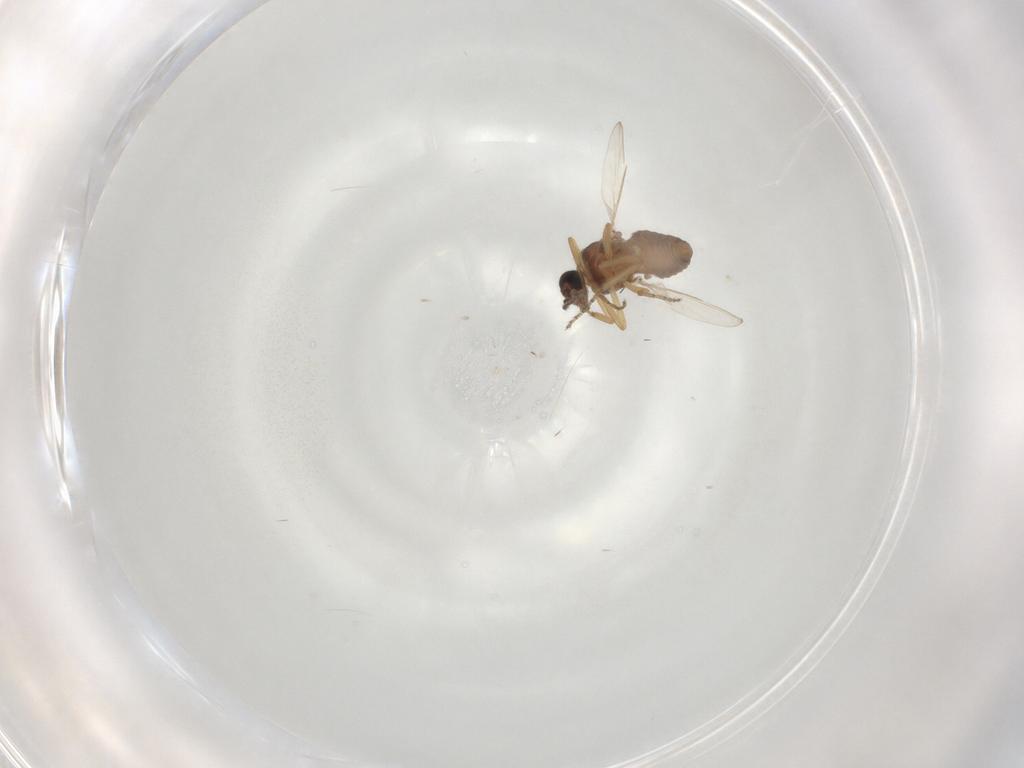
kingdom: Animalia
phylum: Arthropoda
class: Insecta
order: Diptera
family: Ceratopogonidae
